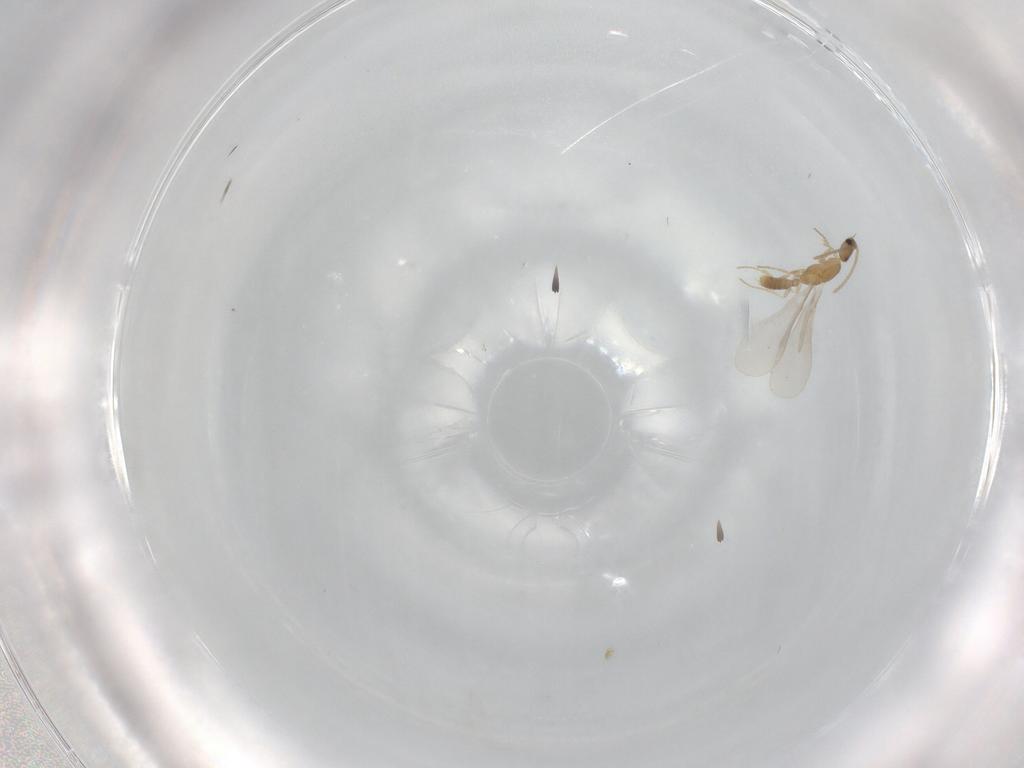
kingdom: Animalia
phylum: Arthropoda
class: Insecta
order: Hymenoptera
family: Formicidae
